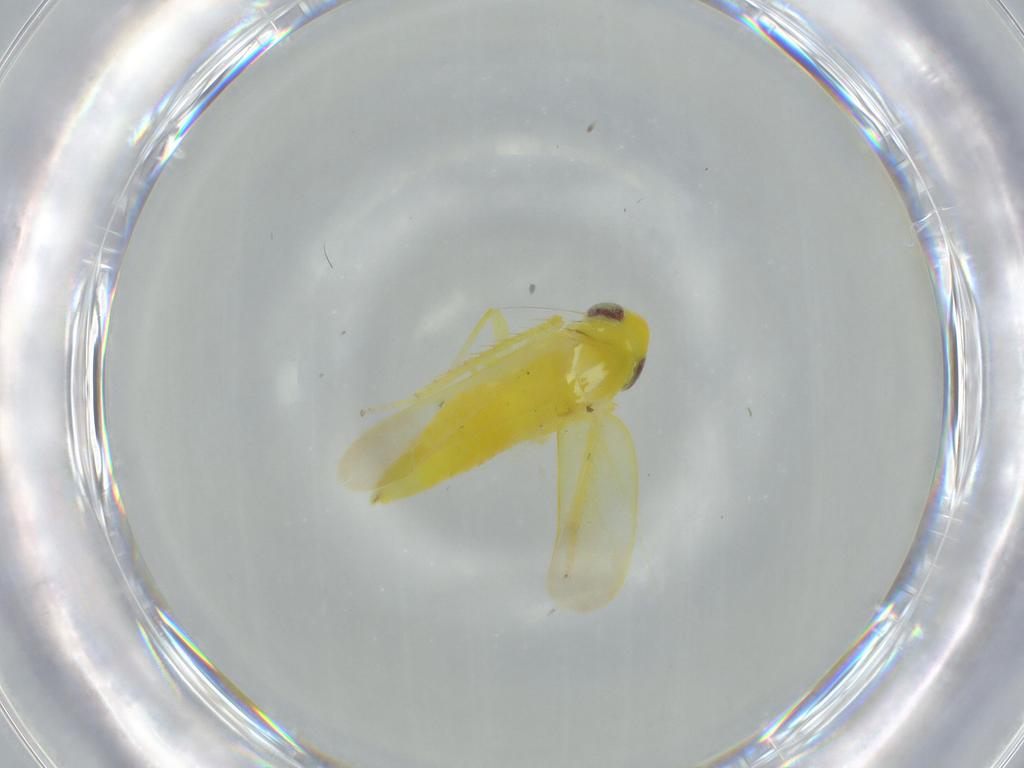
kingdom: Animalia
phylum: Arthropoda
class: Insecta
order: Hemiptera
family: Cicadellidae
